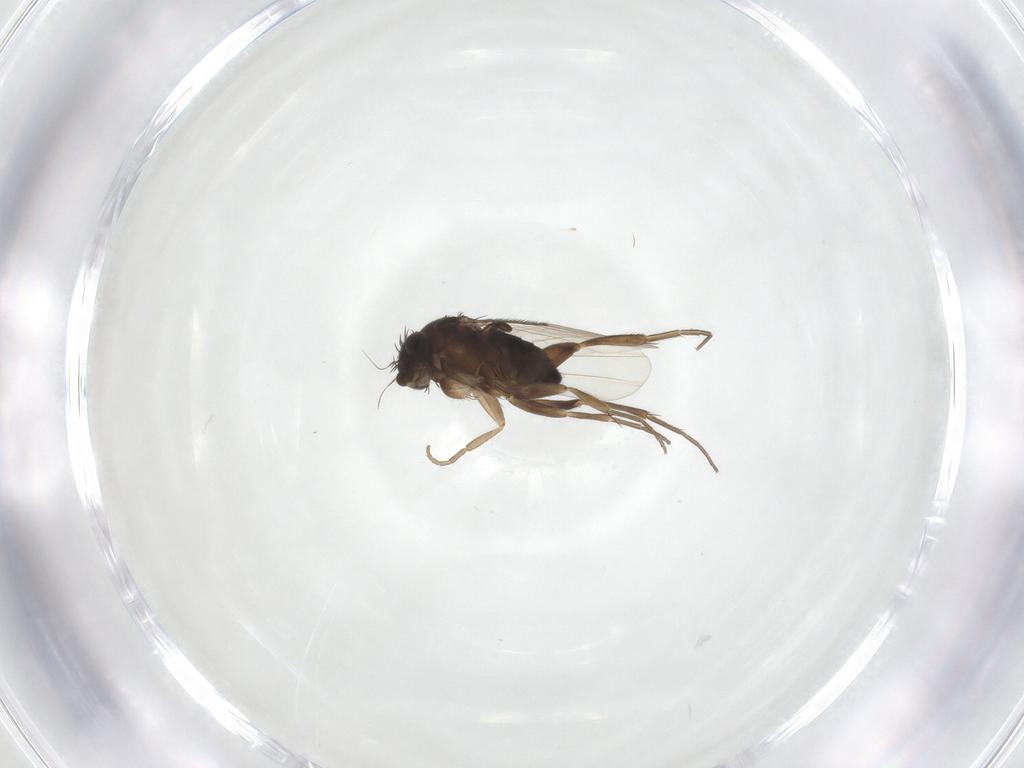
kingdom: Animalia
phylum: Arthropoda
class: Insecta
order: Diptera
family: Phoridae
